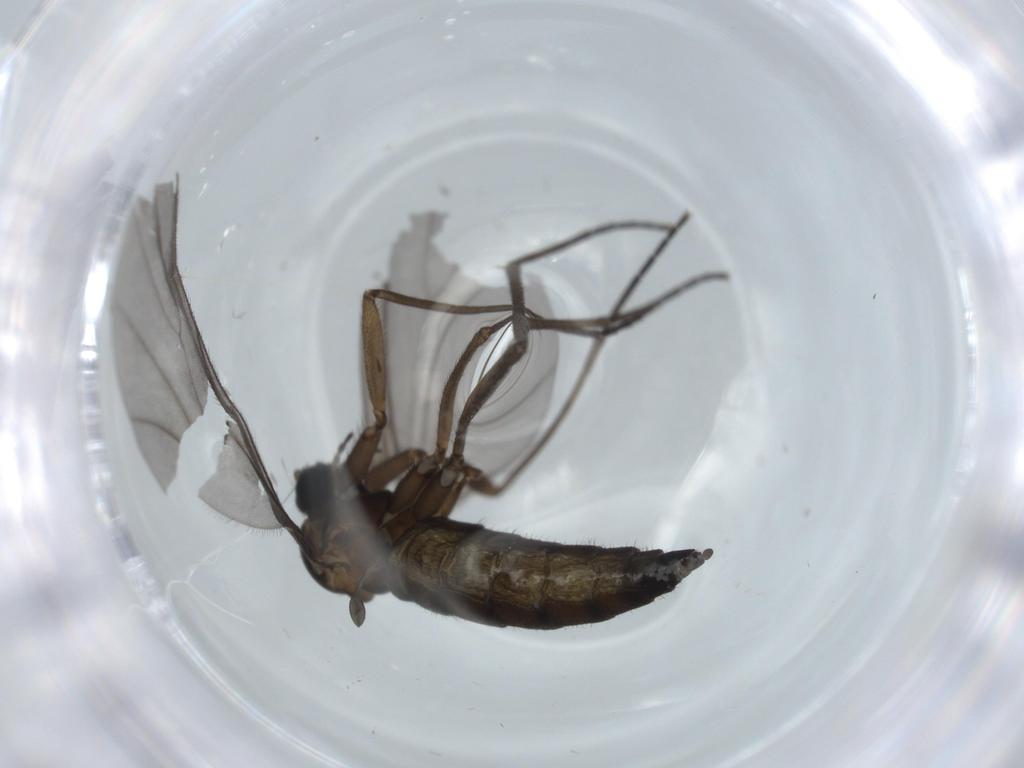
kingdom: Animalia
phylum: Arthropoda
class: Insecta
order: Diptera
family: Sciaridae
